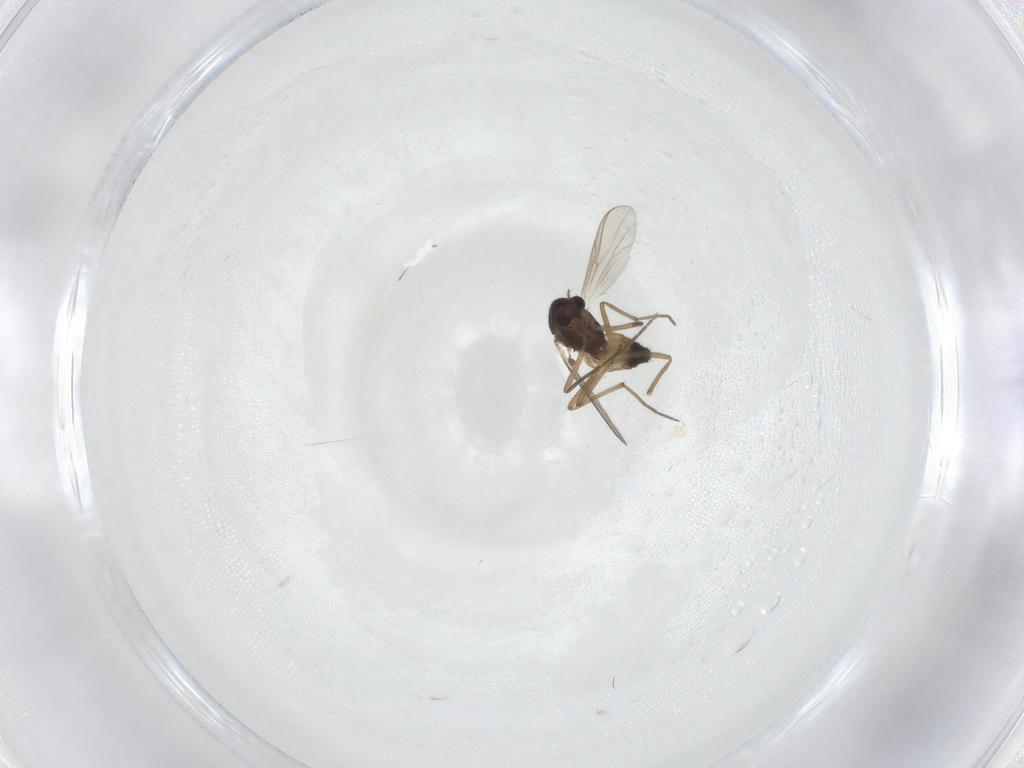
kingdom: Animalia
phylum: Arthropoda
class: Insecta
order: Diptera
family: Chironomidae
